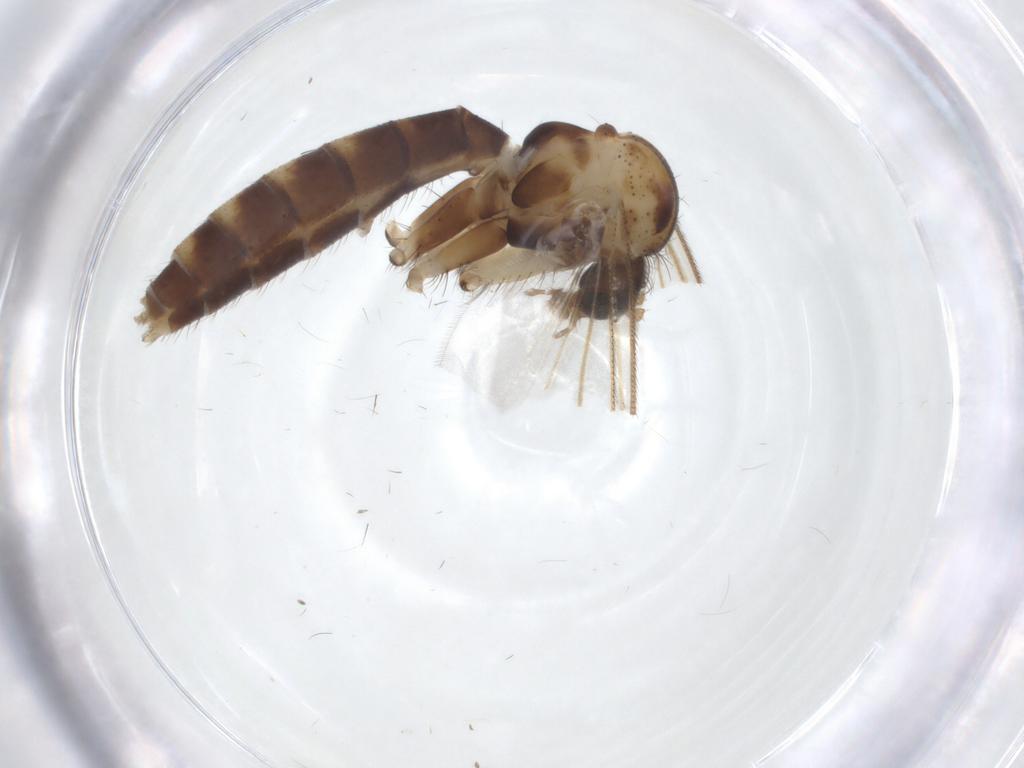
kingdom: Animalia
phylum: Arthropoda
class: Insecta
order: Diptera
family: Mycetophilidae
